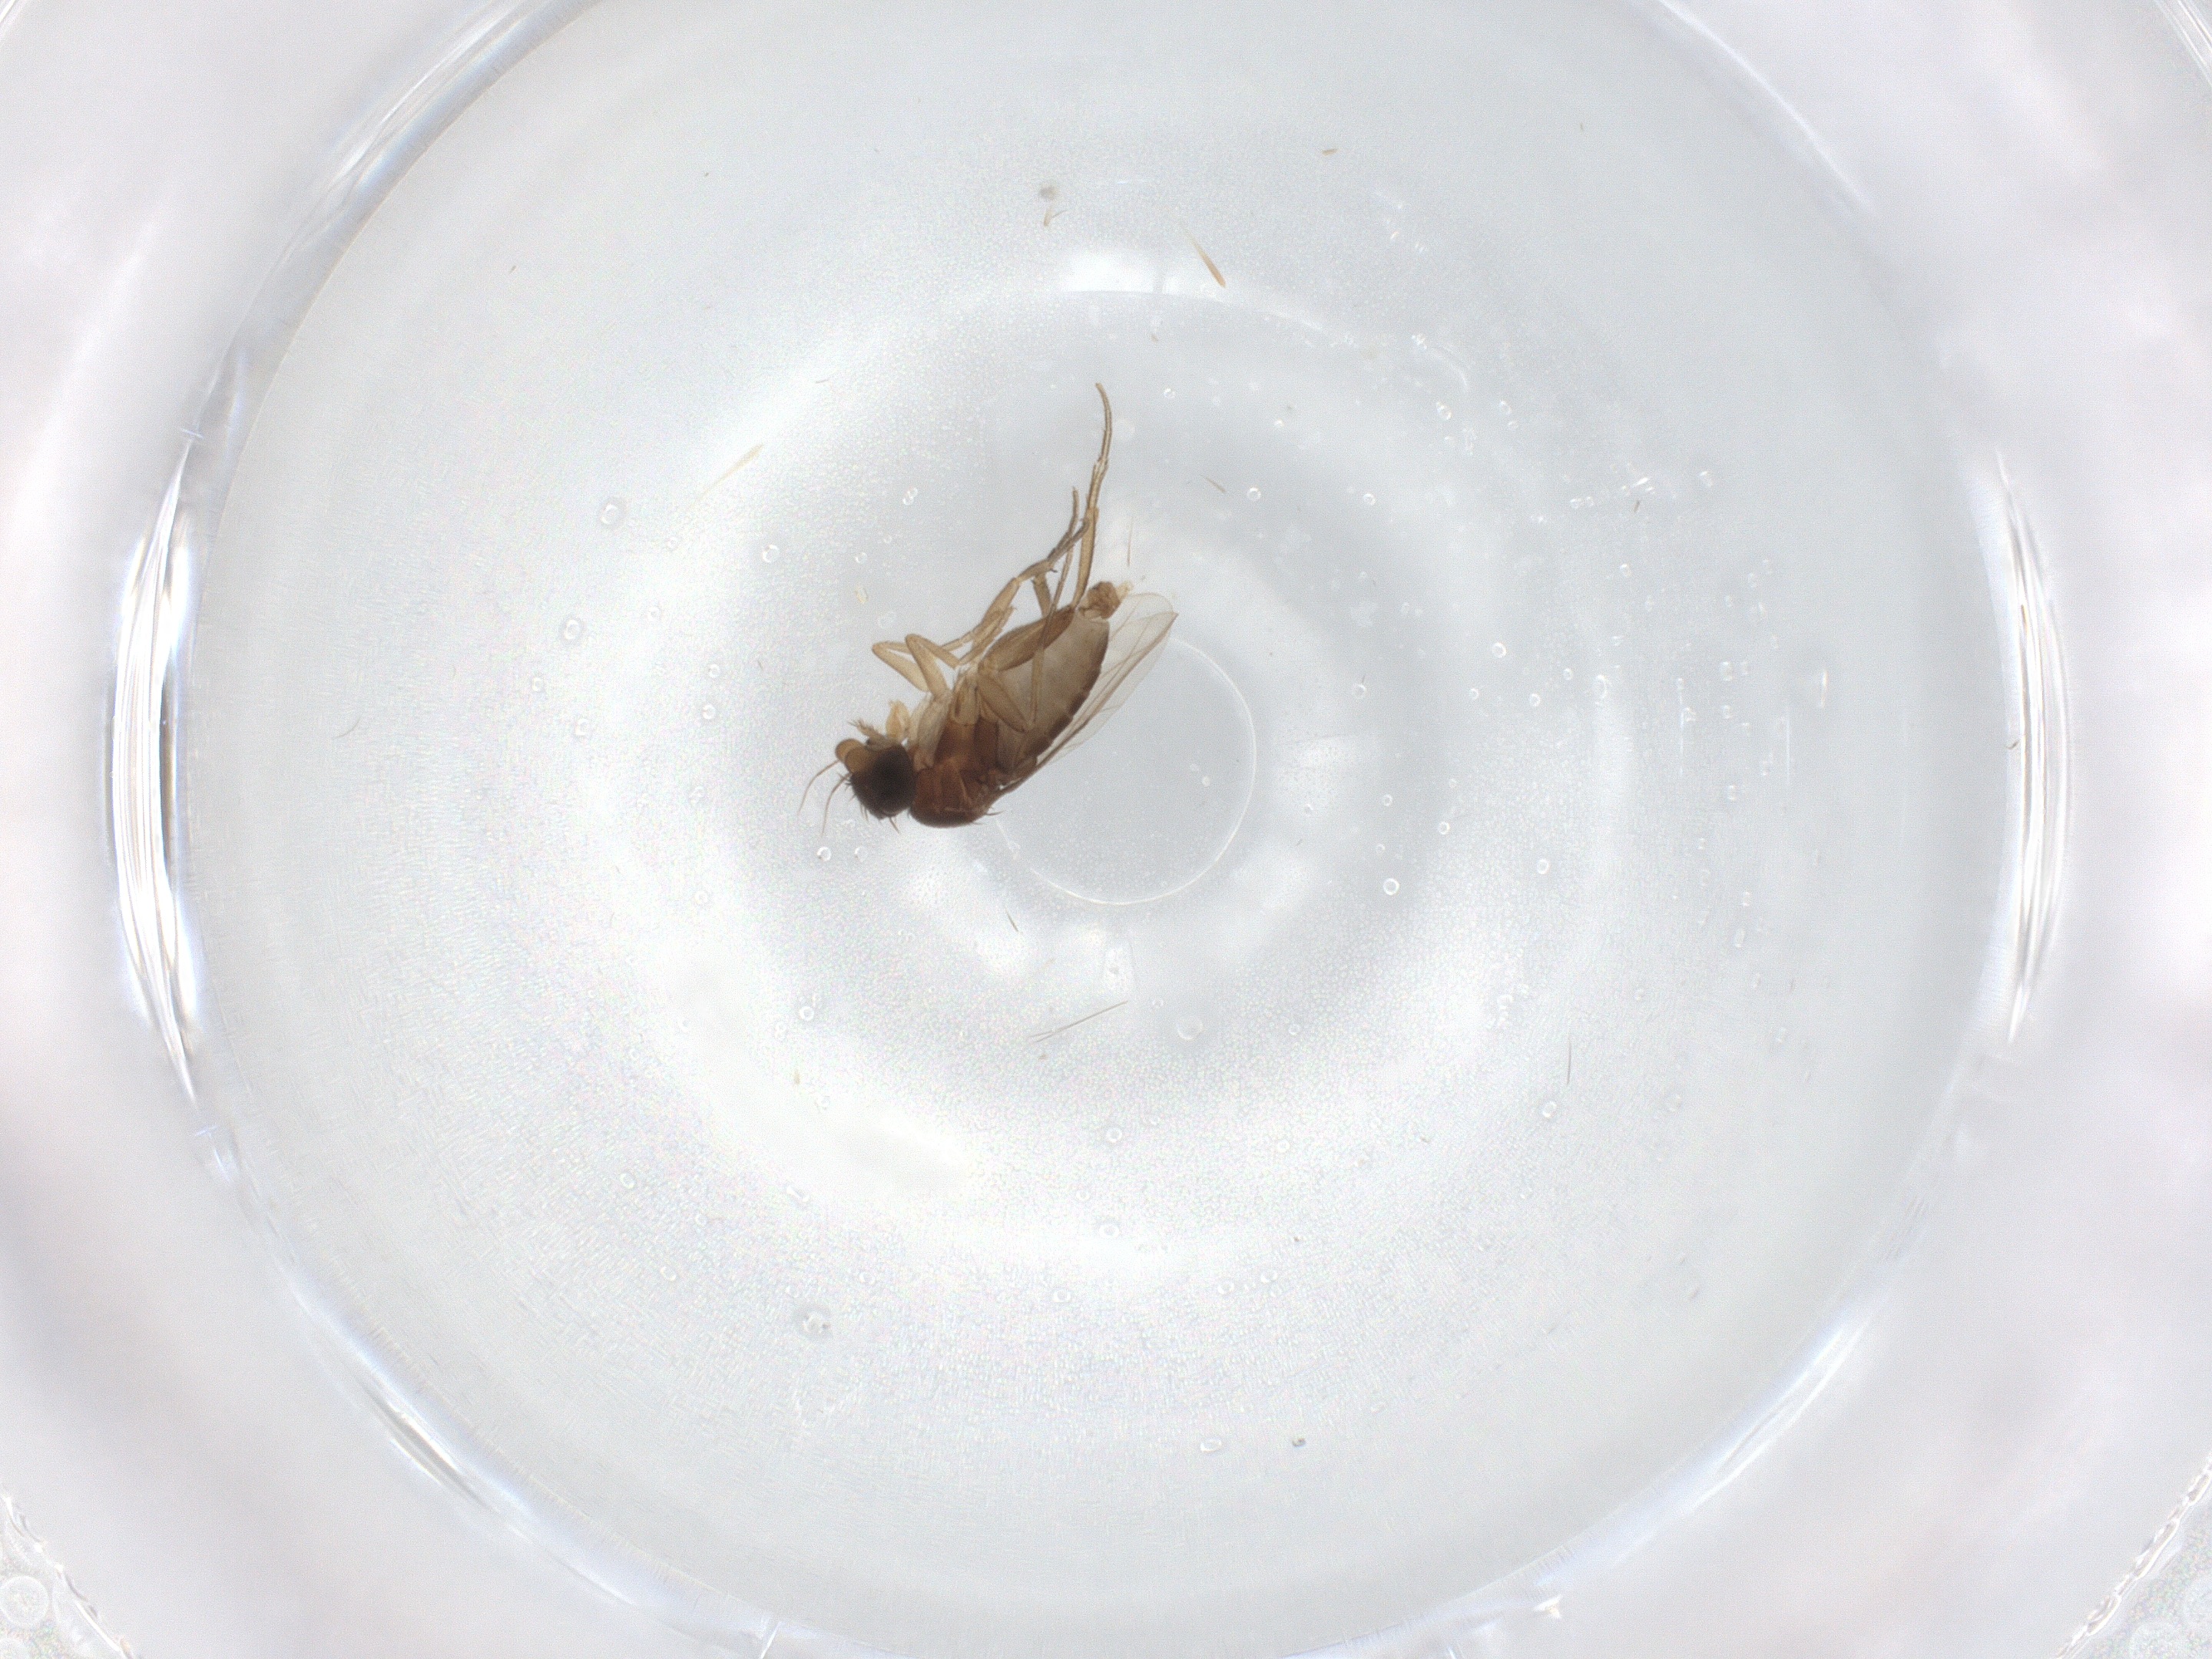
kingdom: Animalia
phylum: Arthropoda
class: Insecta
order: Diptera
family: Phoridae
